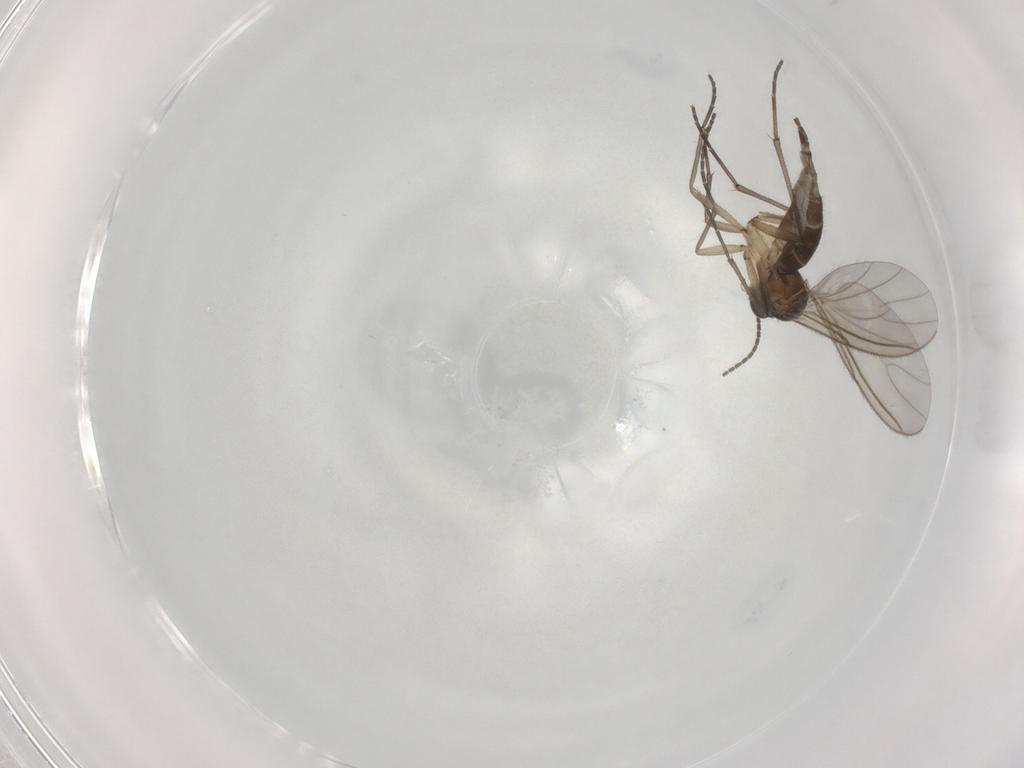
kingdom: Animalia
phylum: Arthropoda
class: Insecta
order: Diptera
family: Sciaridae
